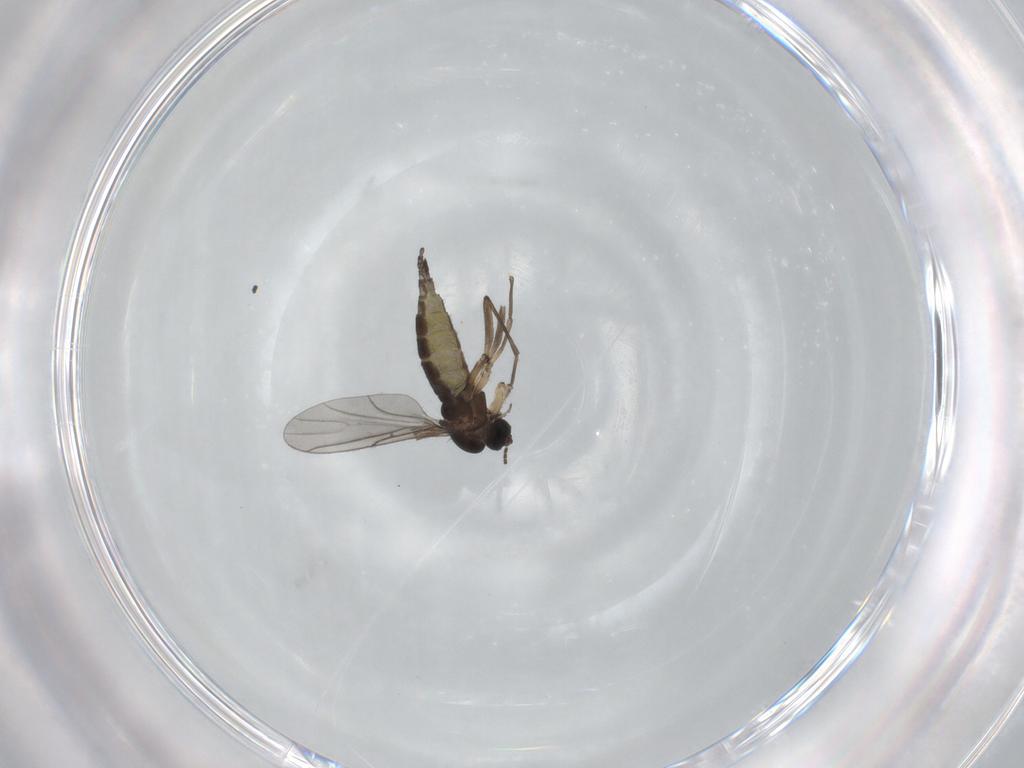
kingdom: Animalia
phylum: Arthropoda
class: Insecta
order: Diptera
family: Sciaridae
